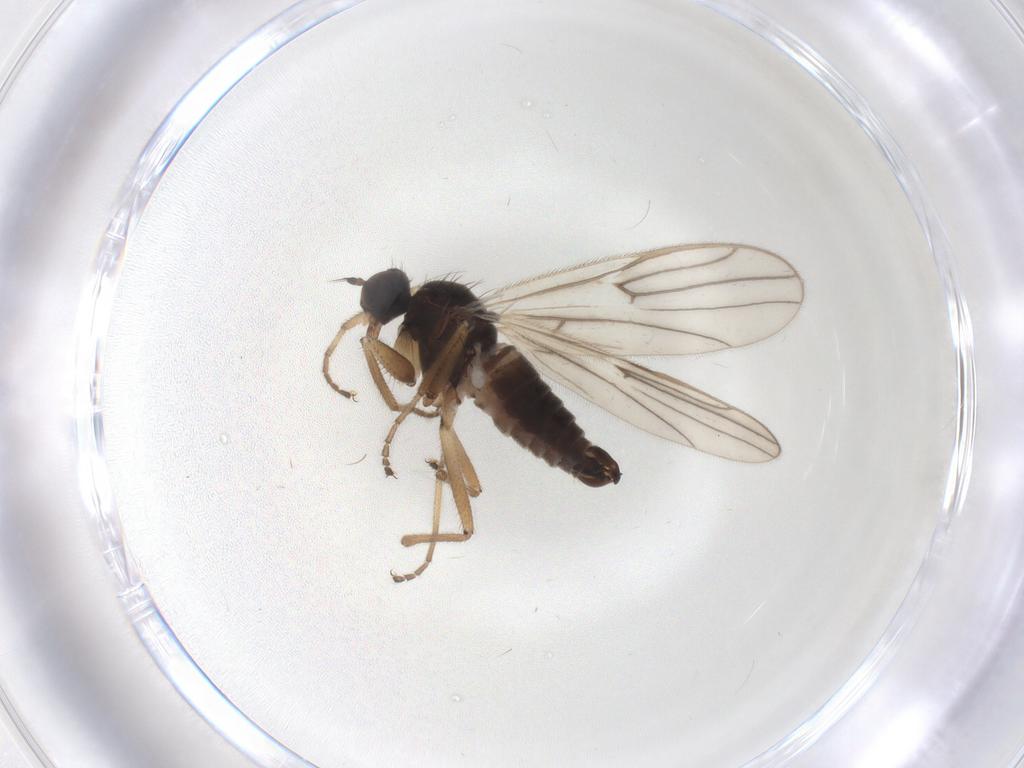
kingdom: Animalia
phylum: Arthropoda
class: Insecta
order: Diptera
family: Hybotidae
